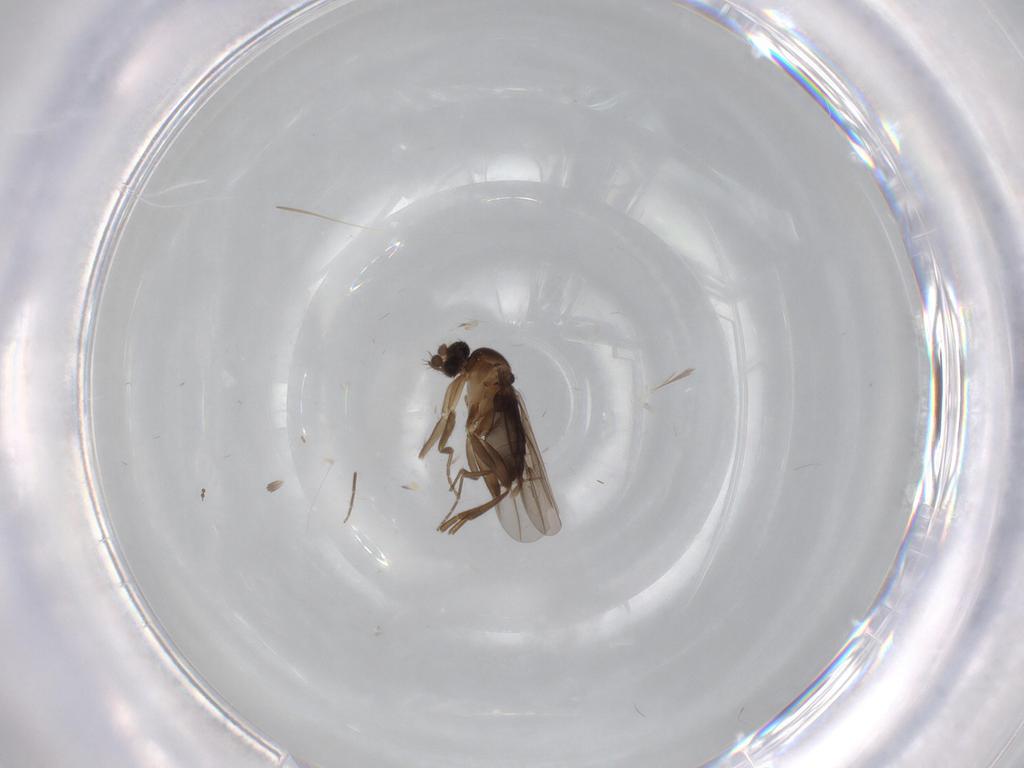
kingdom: Animalia
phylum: Arthropoda
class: Insecta
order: Diptera
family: Phoridae
